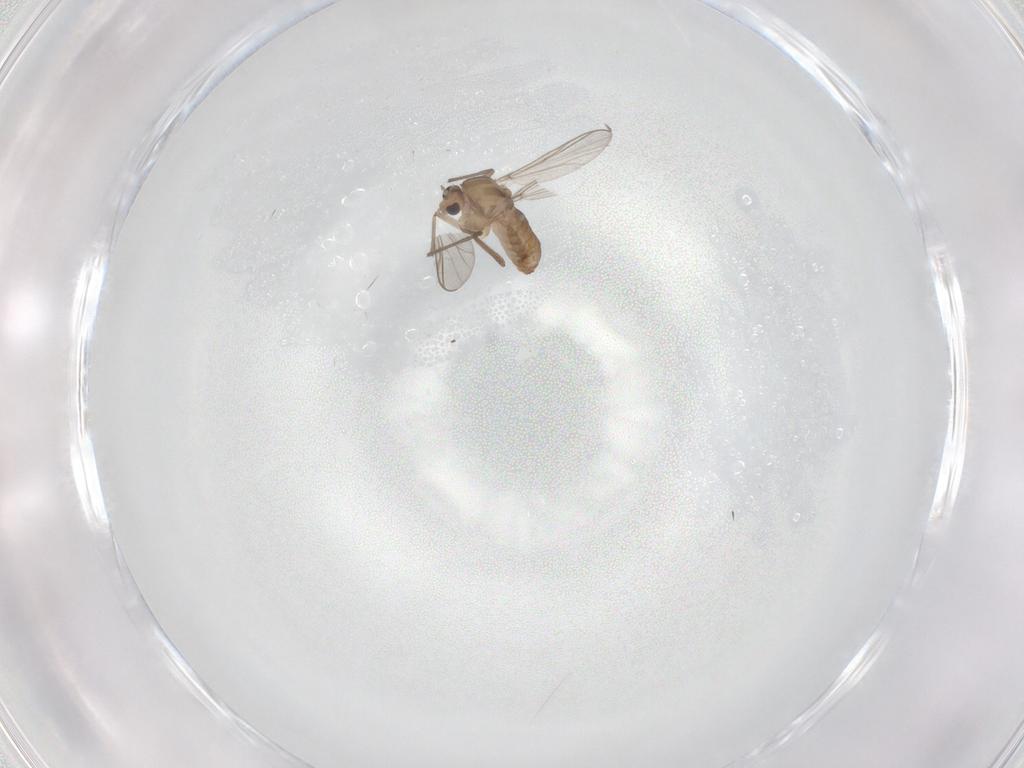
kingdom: Animalia
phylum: Arthropoda
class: Insecta
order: Diptera
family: Chironomidae
